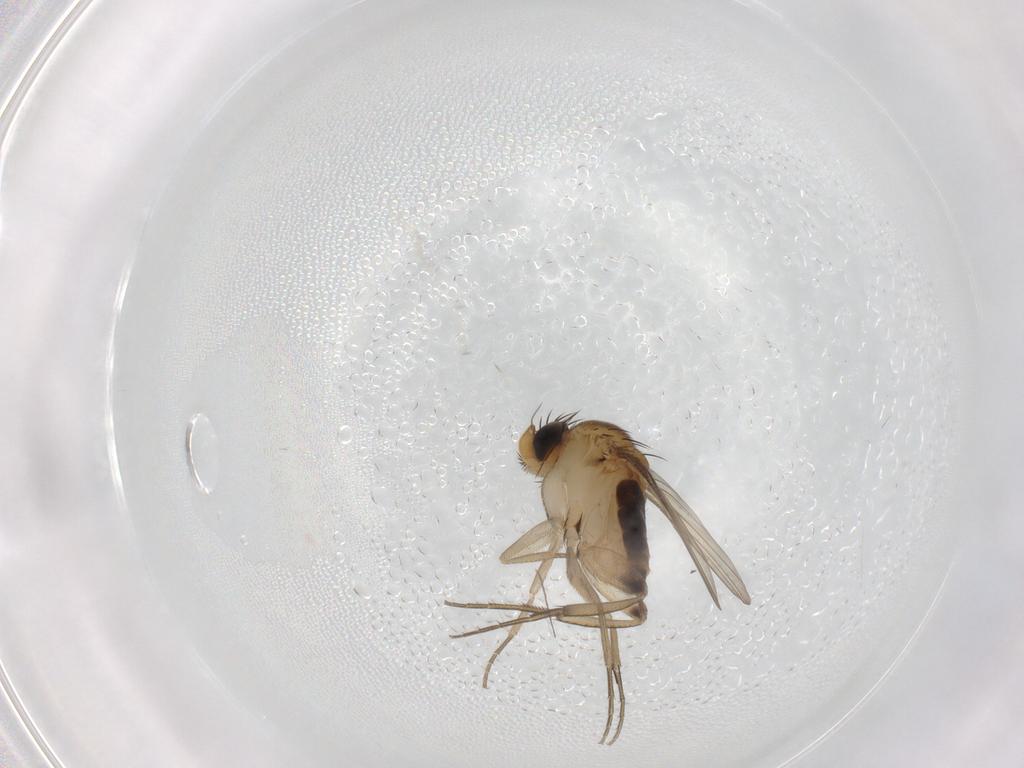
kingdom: Animalia
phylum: Arthropoda
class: Insecta
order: Diptera
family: Cecidomyiidae
